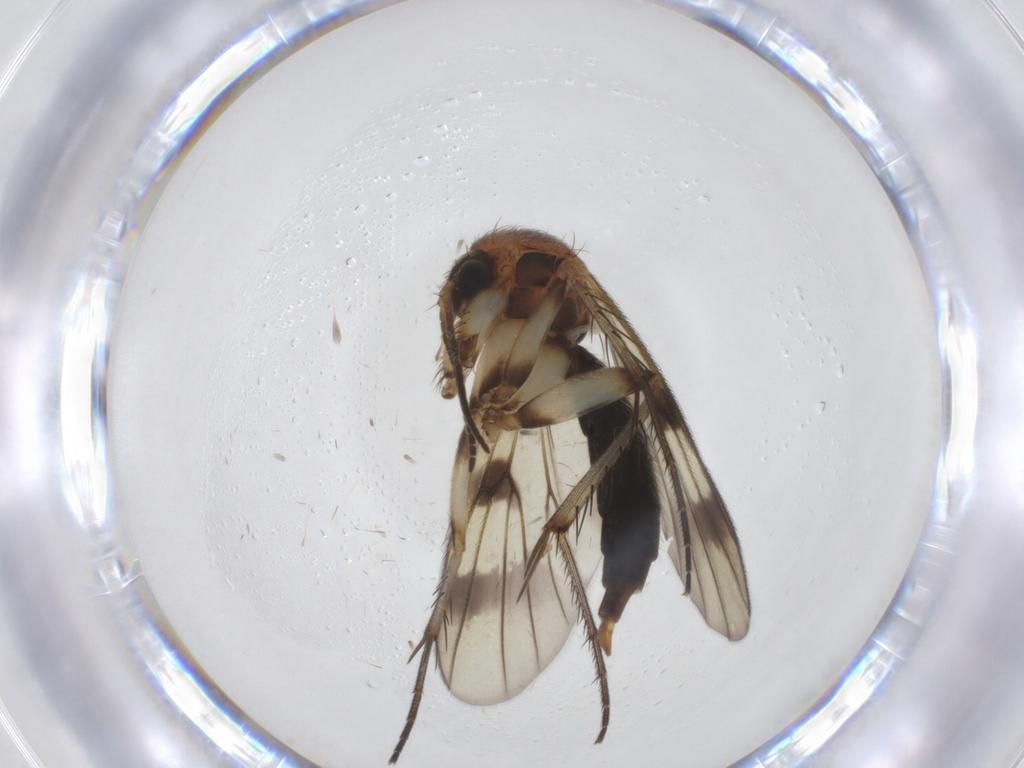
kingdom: Animalia
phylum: Arthropoda
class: Insecta
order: Diptera
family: Mycetophilidae
